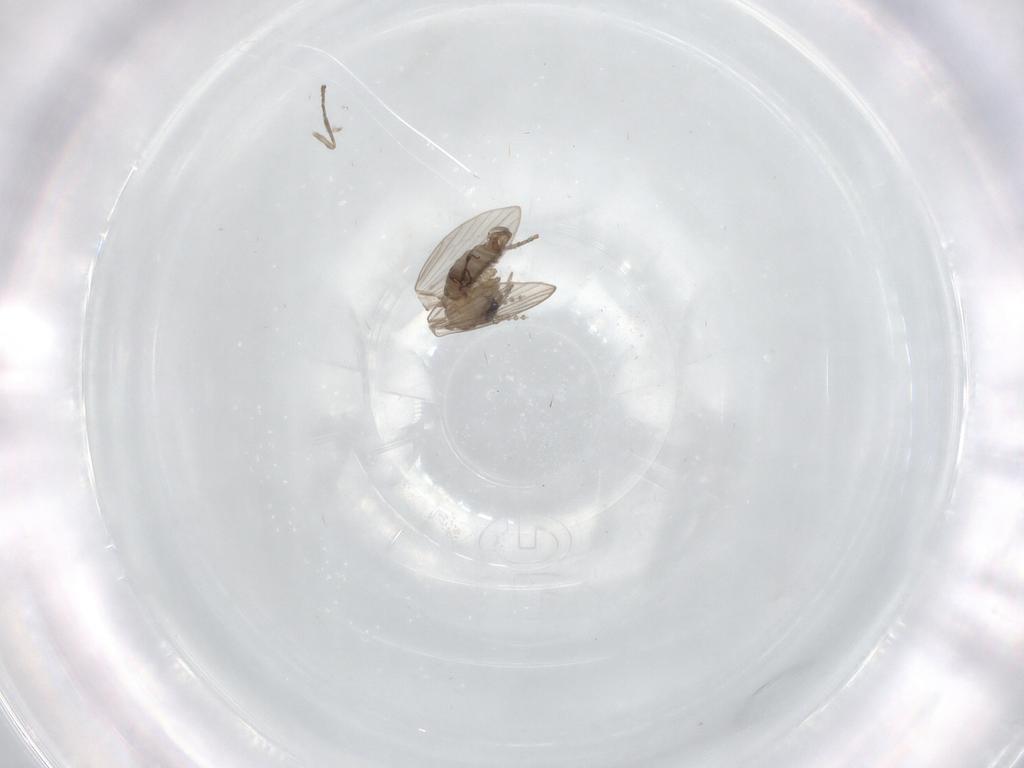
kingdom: Animalia
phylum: Arthropoda
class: Insecta
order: Diptera
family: Psychodidae
